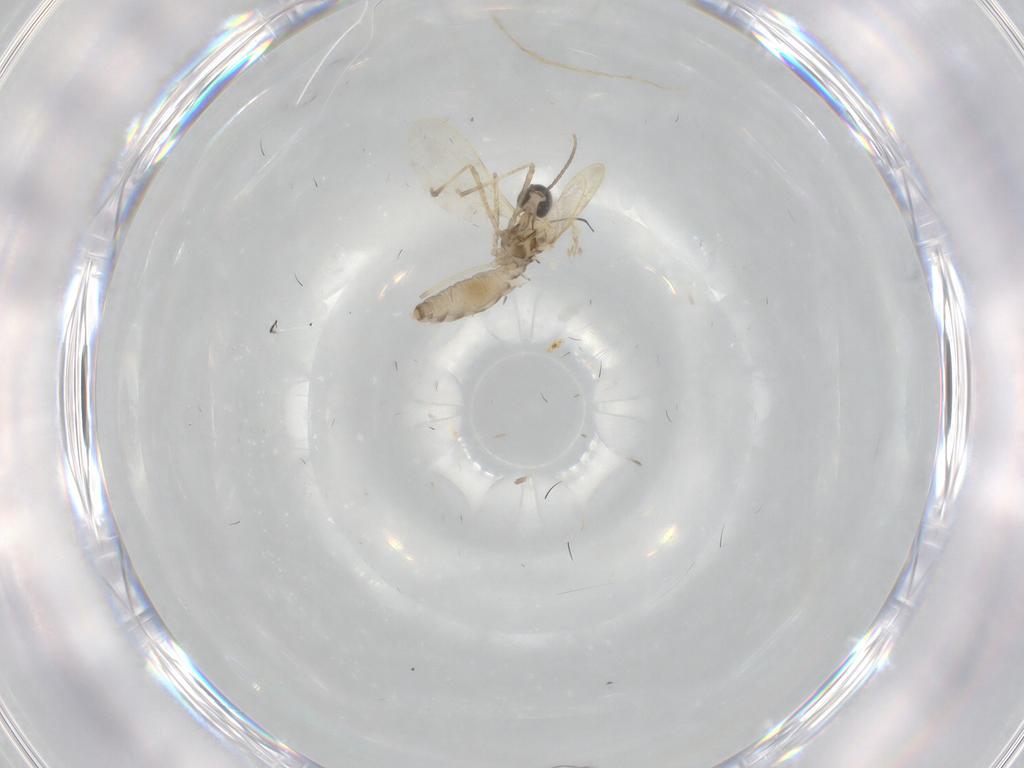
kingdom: Animalia
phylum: Arthropoda
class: Insecta
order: Diptera
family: Cecidomyiidae
